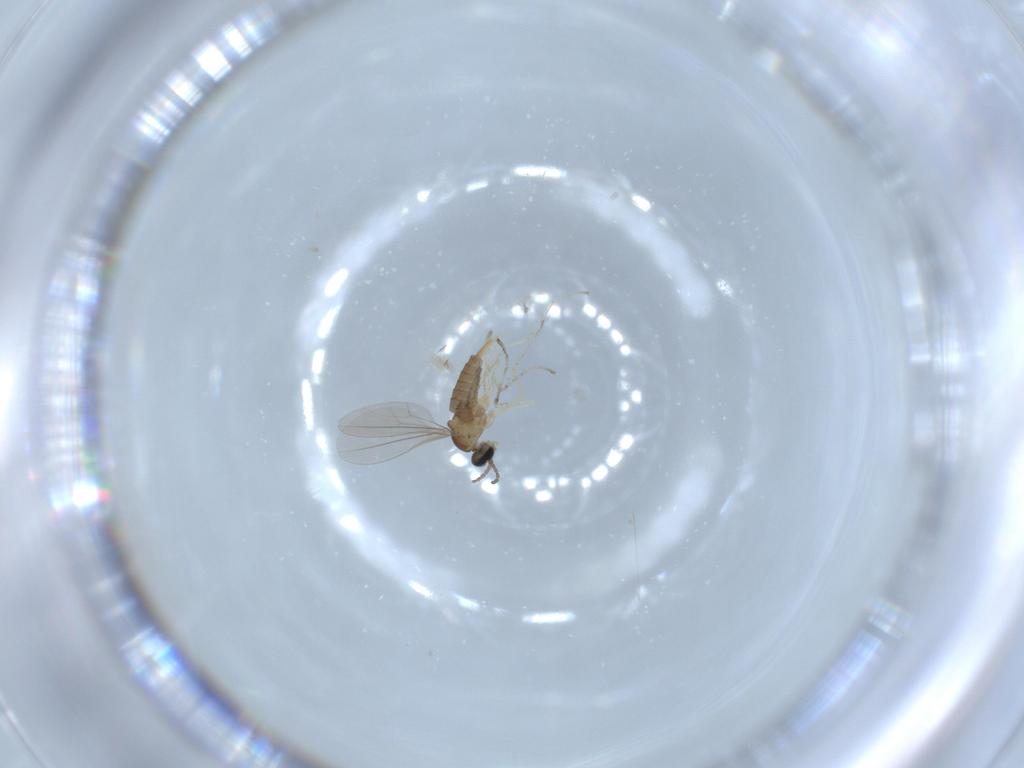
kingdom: Animalia
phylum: Arthropoda
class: Insecta
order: Diptera
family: Cecidomyiidae
